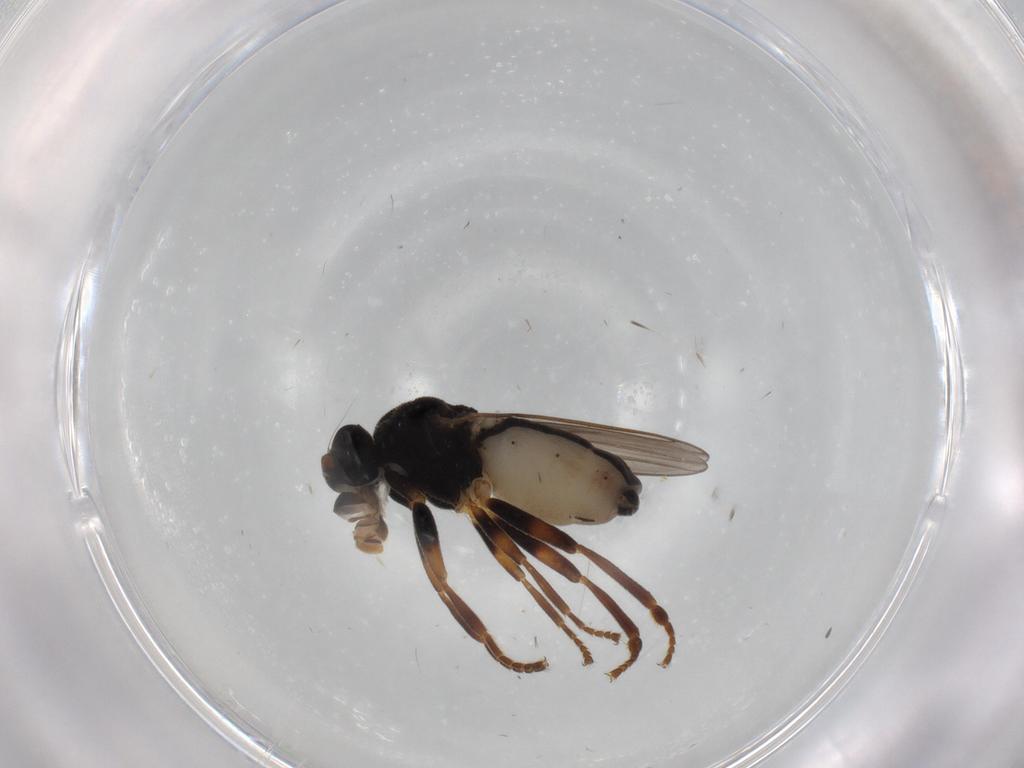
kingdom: Animalia
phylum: Arthropoda
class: Insecta
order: Diptera
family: Sphaeroceridae
